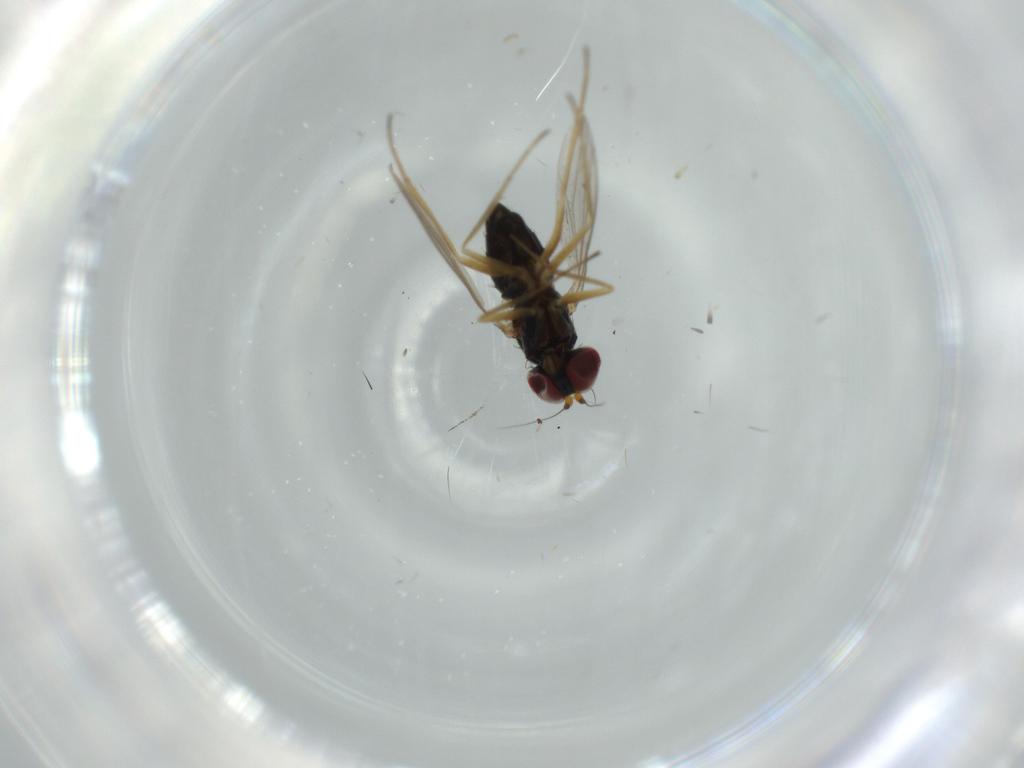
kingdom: Animalia
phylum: Arthropoda
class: Insecta
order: Diptera
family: Dolichopodidae
